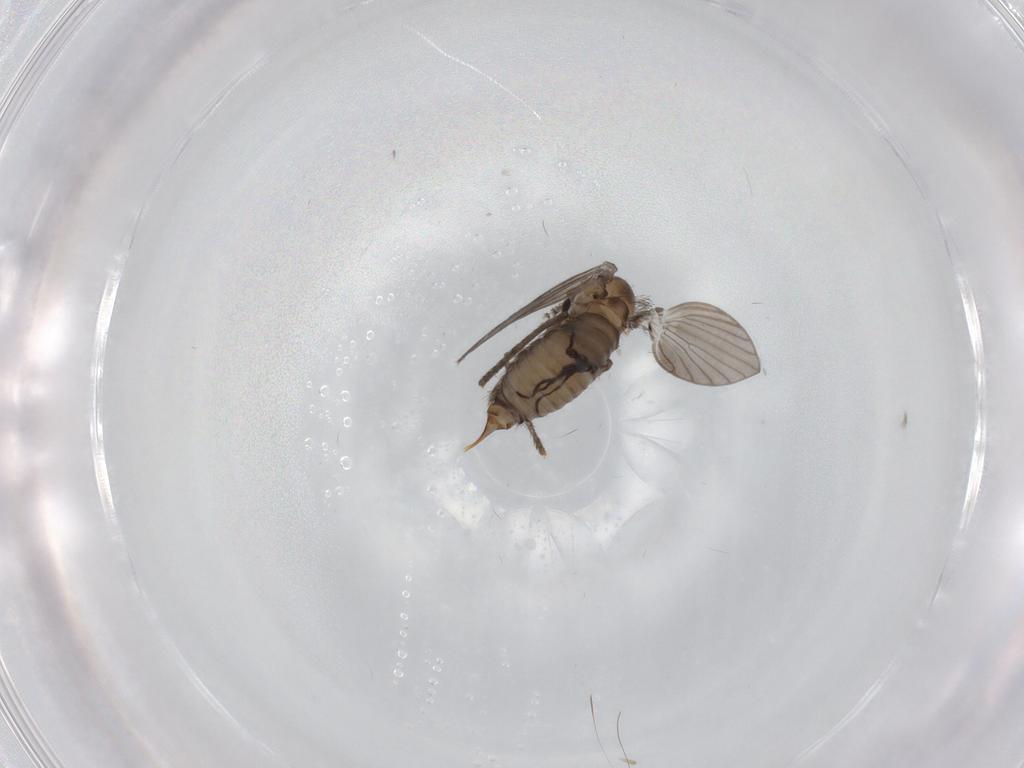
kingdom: Animalia
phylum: Arthropoda
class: Insecta
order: Diptera
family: Psychodidae
